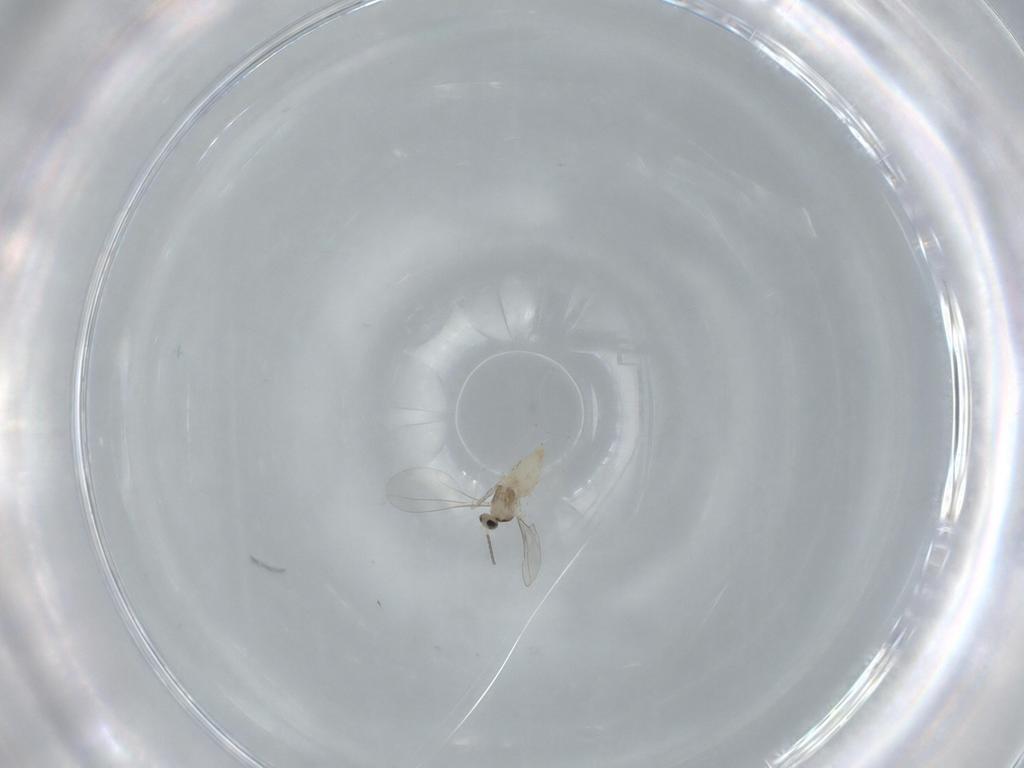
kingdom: Animalia
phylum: Arthropoda
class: Insecta
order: Diptera
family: Cecidomyiidae
